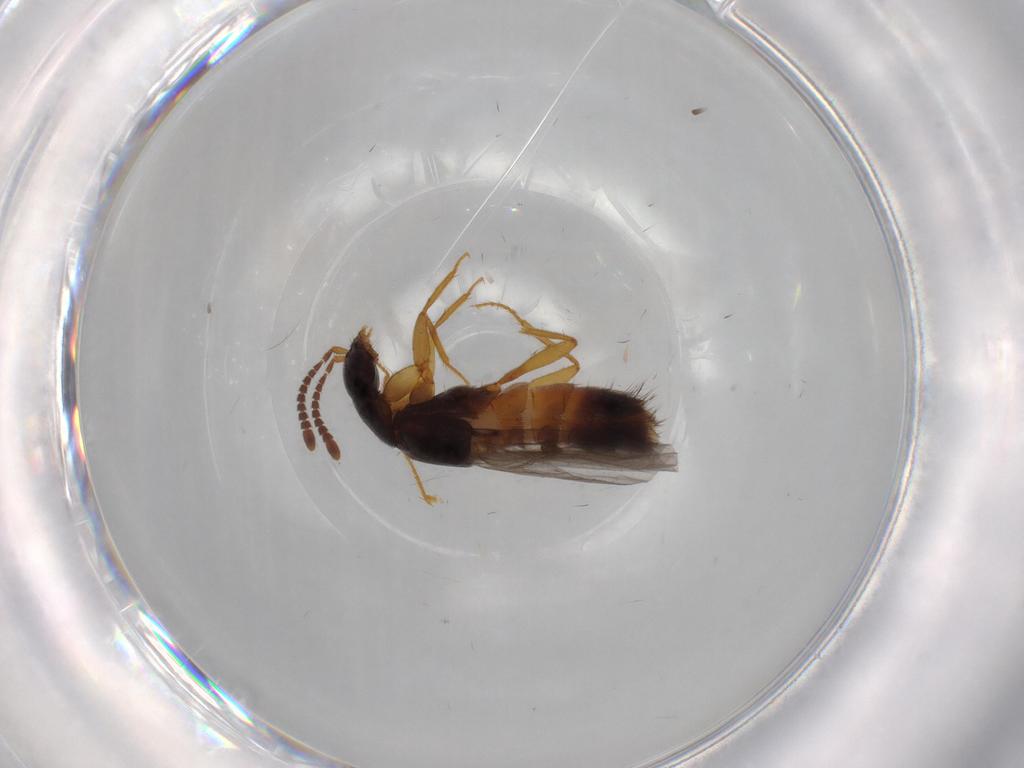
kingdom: Animalia
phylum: Arthropoda
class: Insecta
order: Coleoptera
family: Staphylinidae
